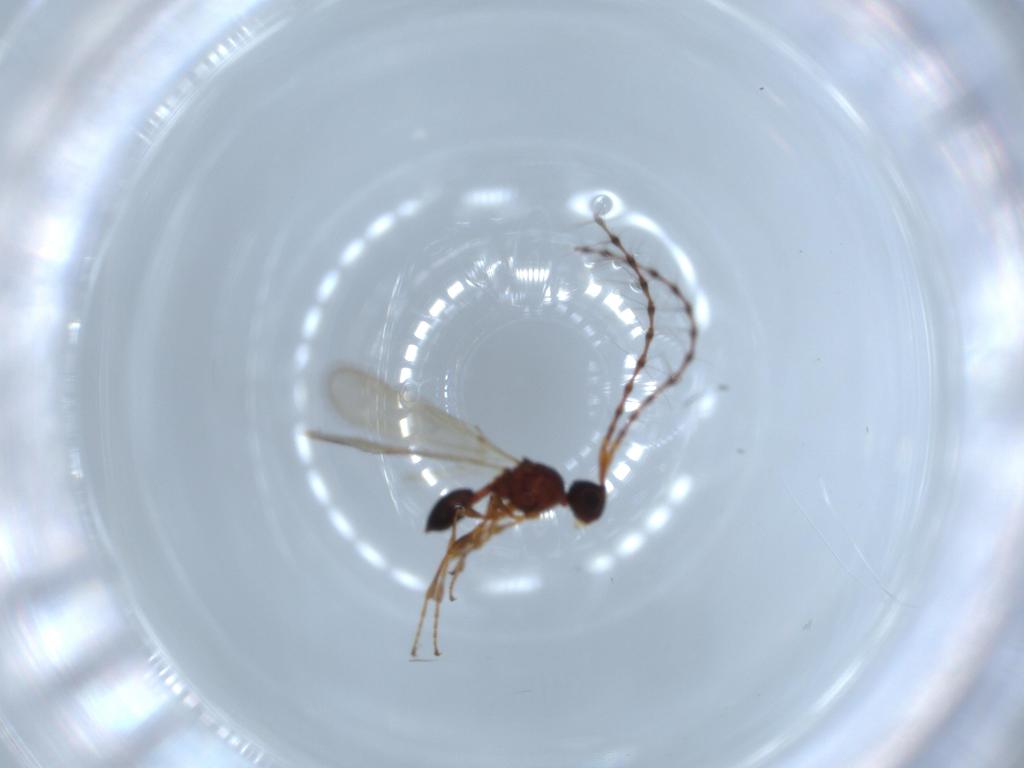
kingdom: Animalia
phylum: Arthropoda
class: Insecta
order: Hymenoptera
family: Diapriidae
